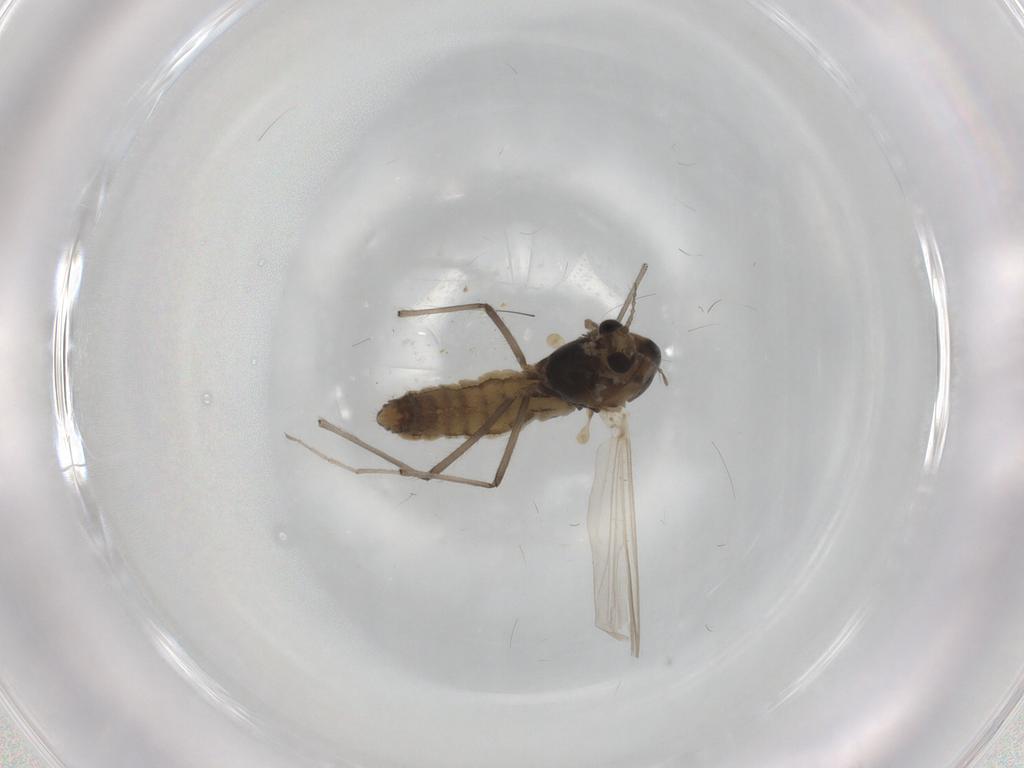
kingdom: Animalia
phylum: Arthropoda
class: Insecta
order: Diptera
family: Chironomidae
